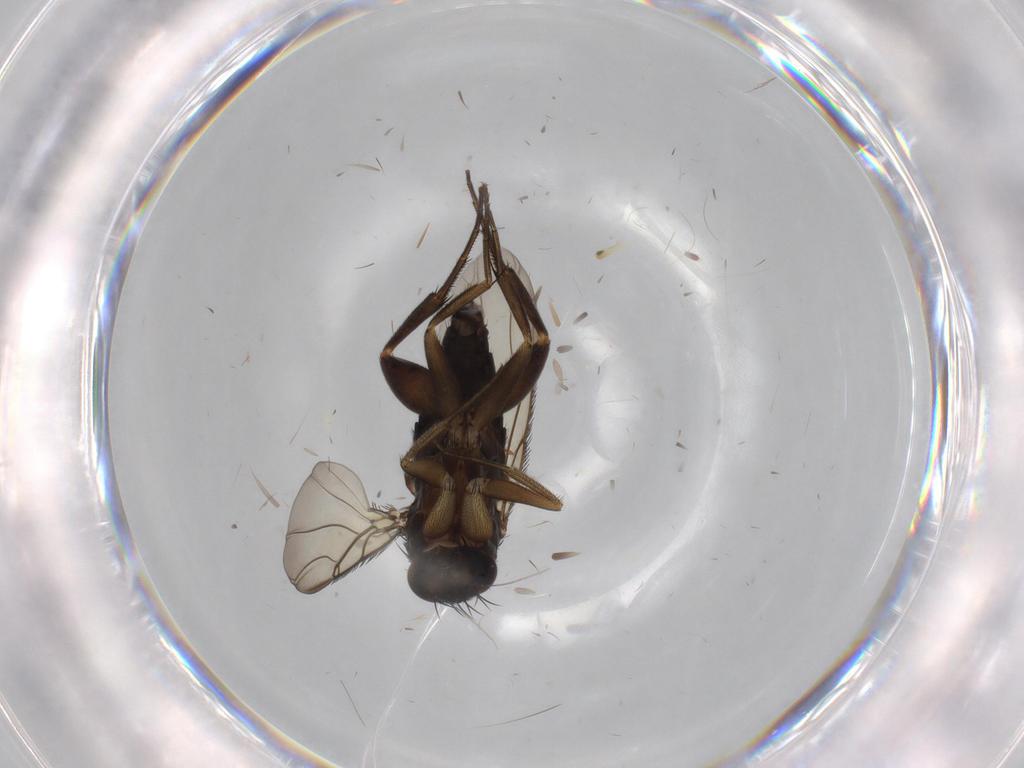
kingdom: Animalia
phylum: Arthropoda
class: Insecta
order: Diptera
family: Phoridae
